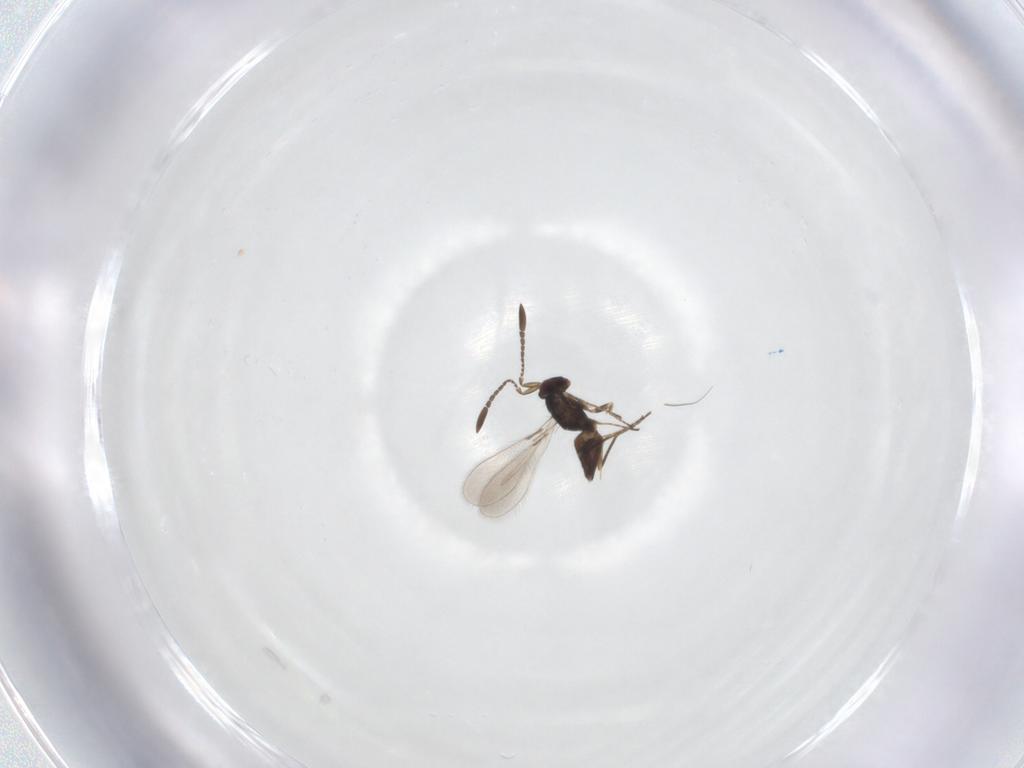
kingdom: Animalia
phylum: Arthropoda
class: Insecta
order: Hymenoptera
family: Mymaridae
